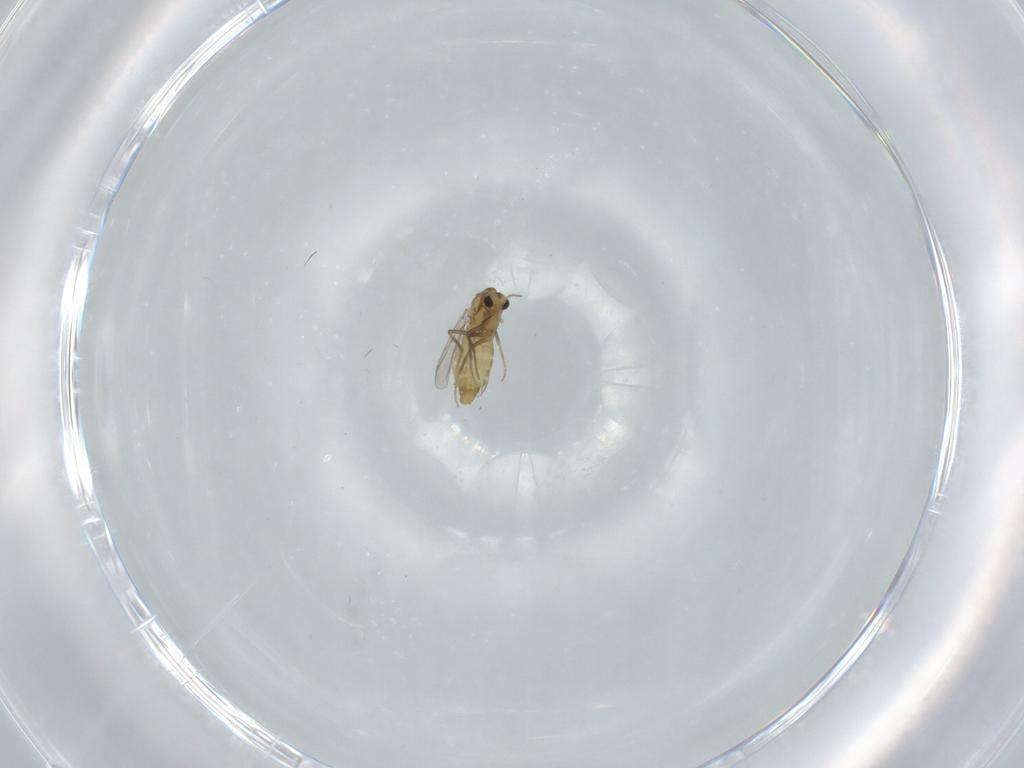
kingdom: Animalia
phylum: Arthropoda
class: Insecta
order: Diptera
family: Chironomidae
